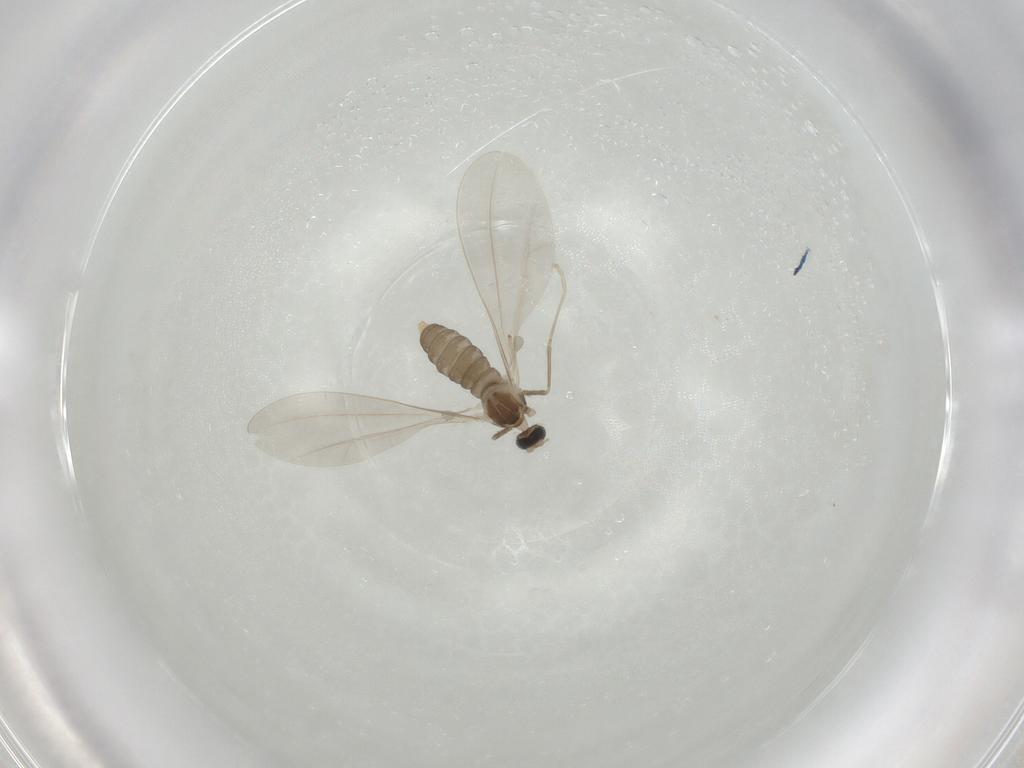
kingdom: Animalia
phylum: Arthropoda
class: Insecta
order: Diptera
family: Cecidomyiidae
